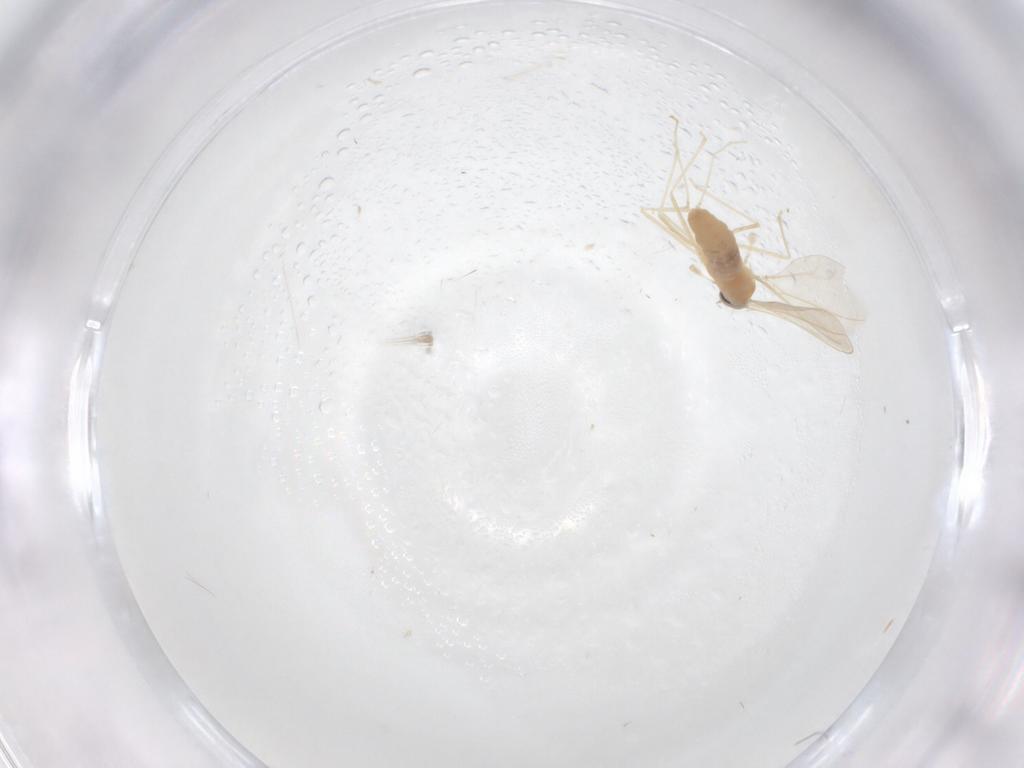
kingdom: Animalia
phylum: Arthropoda
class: Insecta
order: Diptera
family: Cecidomyiidae
